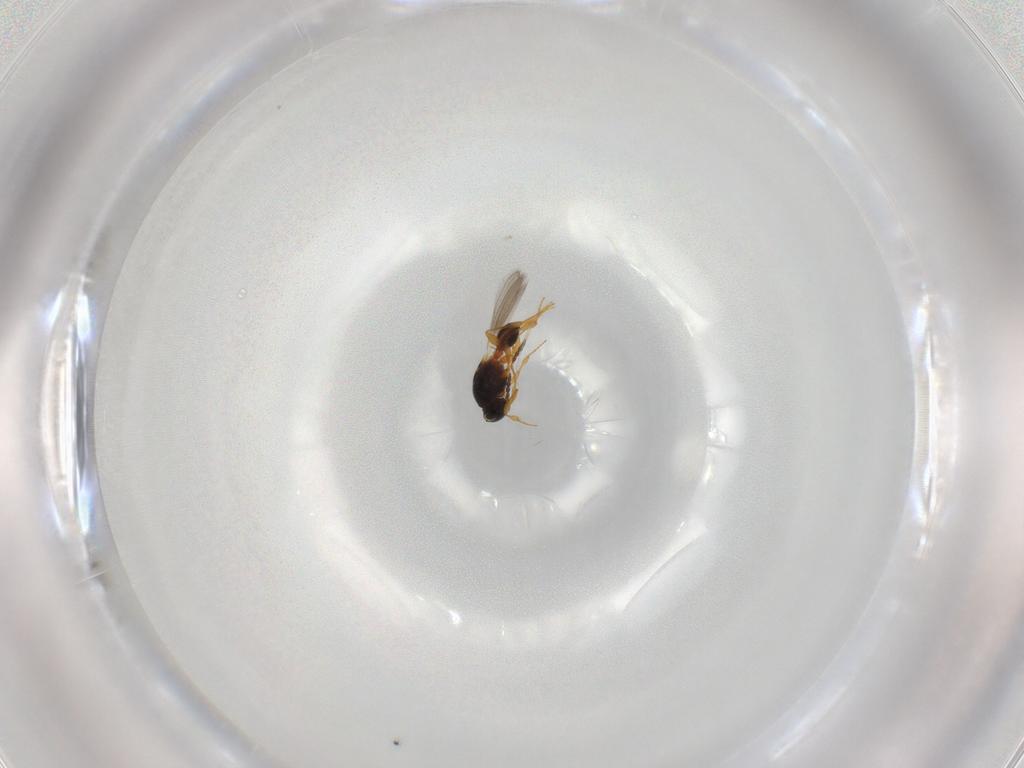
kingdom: Animalia
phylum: Arthropoda
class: Insecta
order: Hymenoptera
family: Platygastridae
